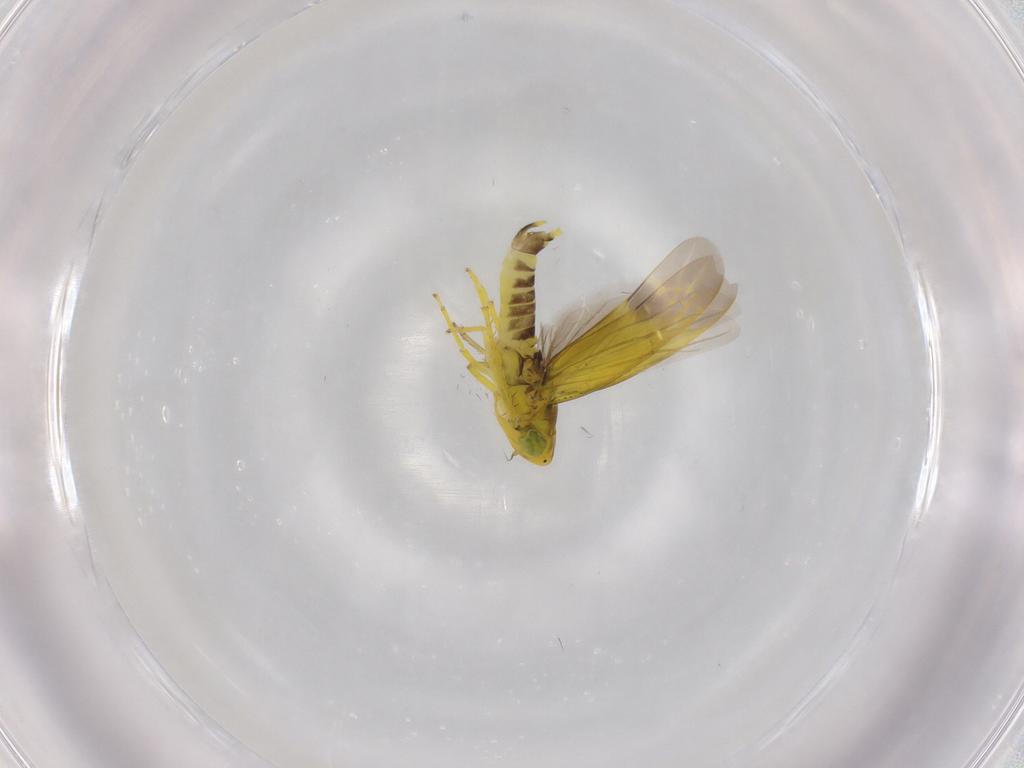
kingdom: Animalia
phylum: Arthropoda
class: Insecta
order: Hemiptera
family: Cicadellidae
